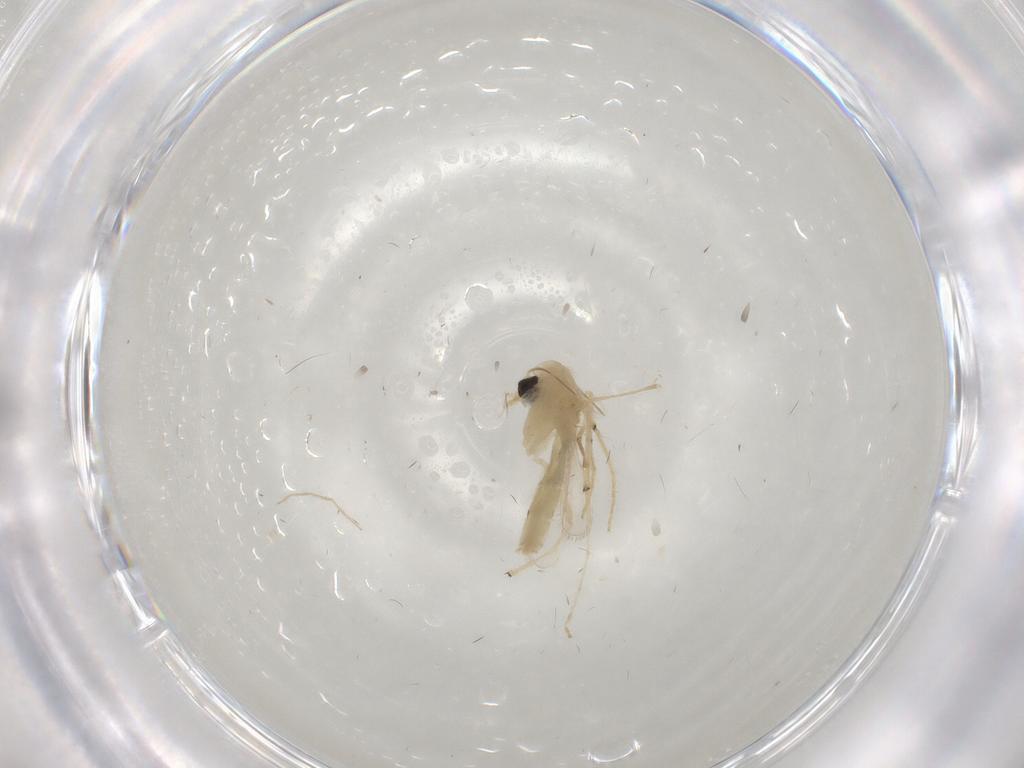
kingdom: Animalia
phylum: Arthropoda
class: Insecta
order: Diptera
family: Chironomidae
